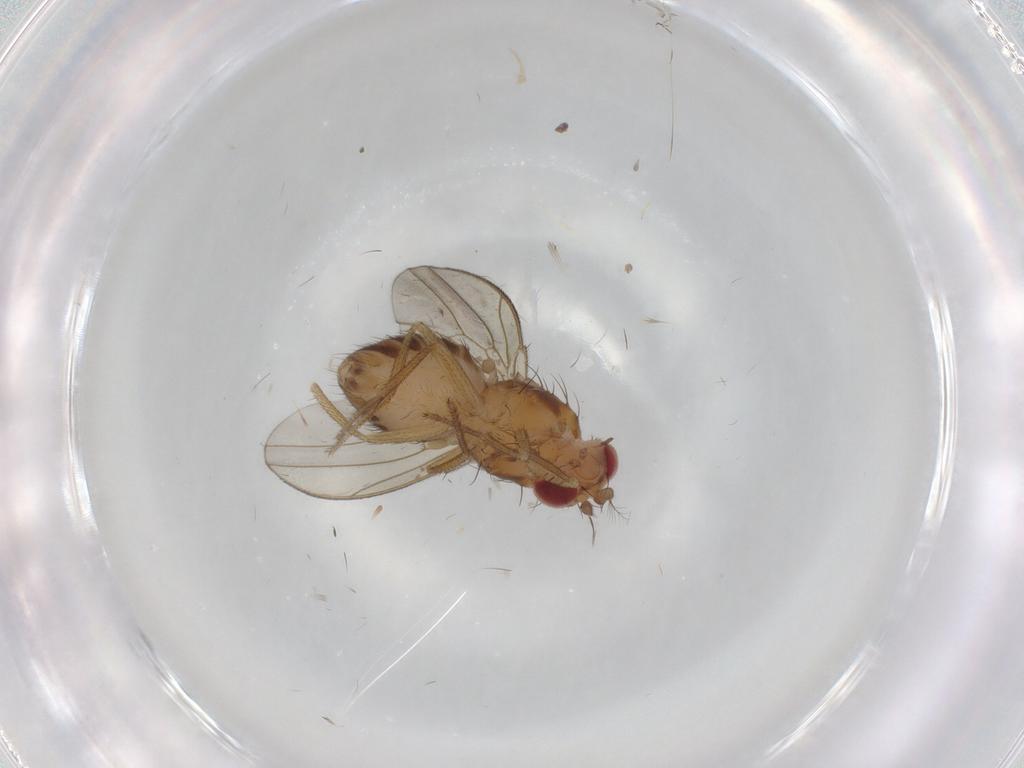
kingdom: Animalia
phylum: Arthropoda
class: Insecta
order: Diptera
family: Drosophilidae
